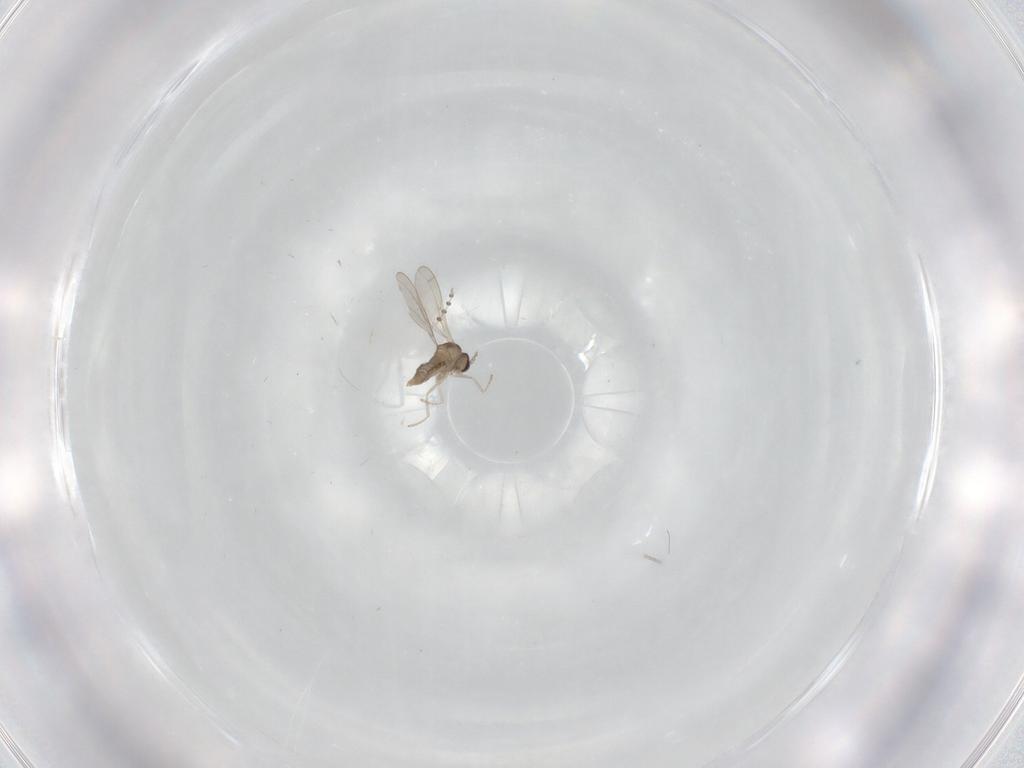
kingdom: Animalia
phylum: Arthropoda
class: Insecta
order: Diptera
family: Cecidomyiidae
